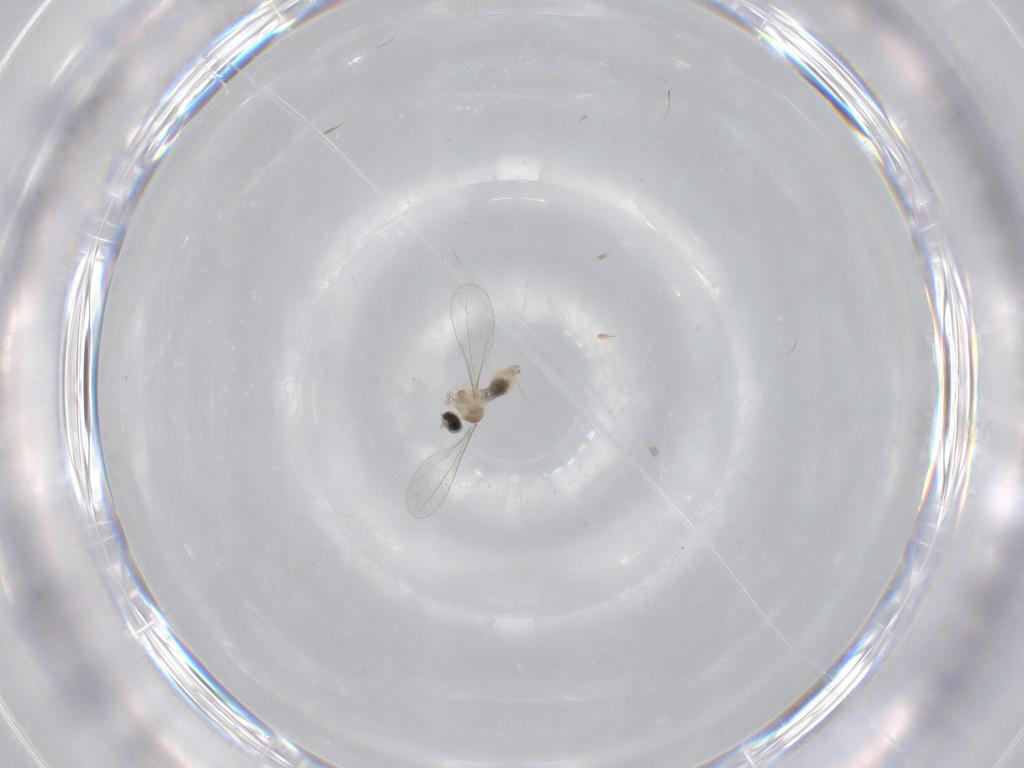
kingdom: Animalia
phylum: Arthropoda
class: Insecta
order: Diptera
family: Cecidomyiidae
